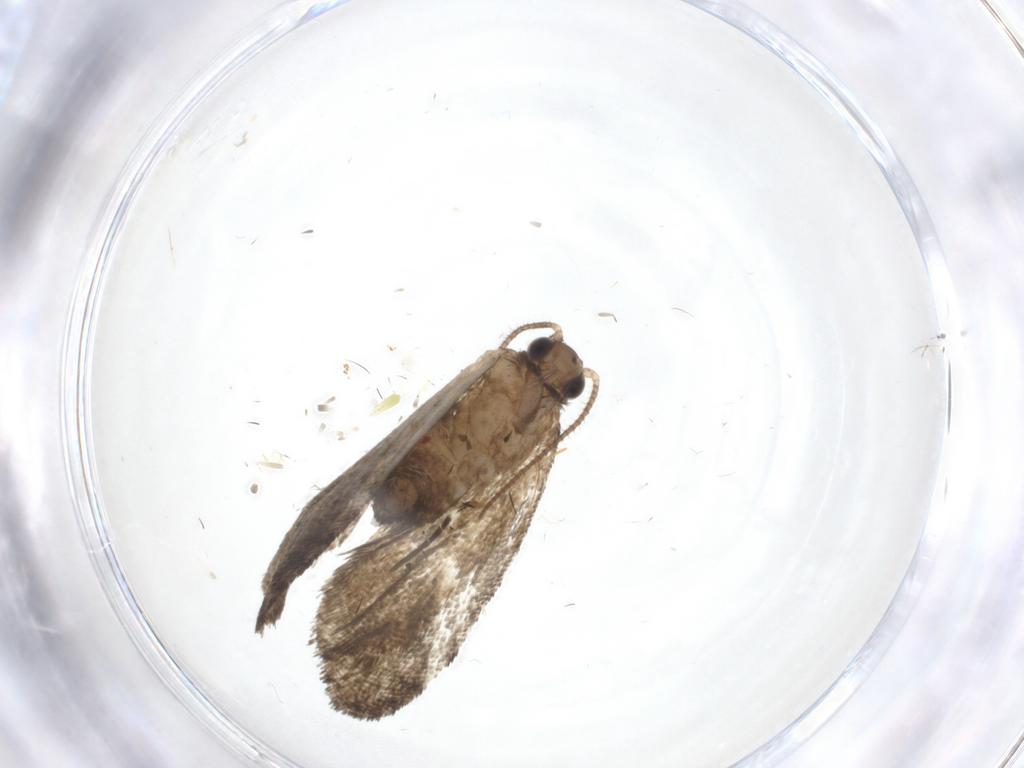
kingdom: Animalia
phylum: Arthropoda
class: Insecta
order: Lepidoptera
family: Tortricidae
